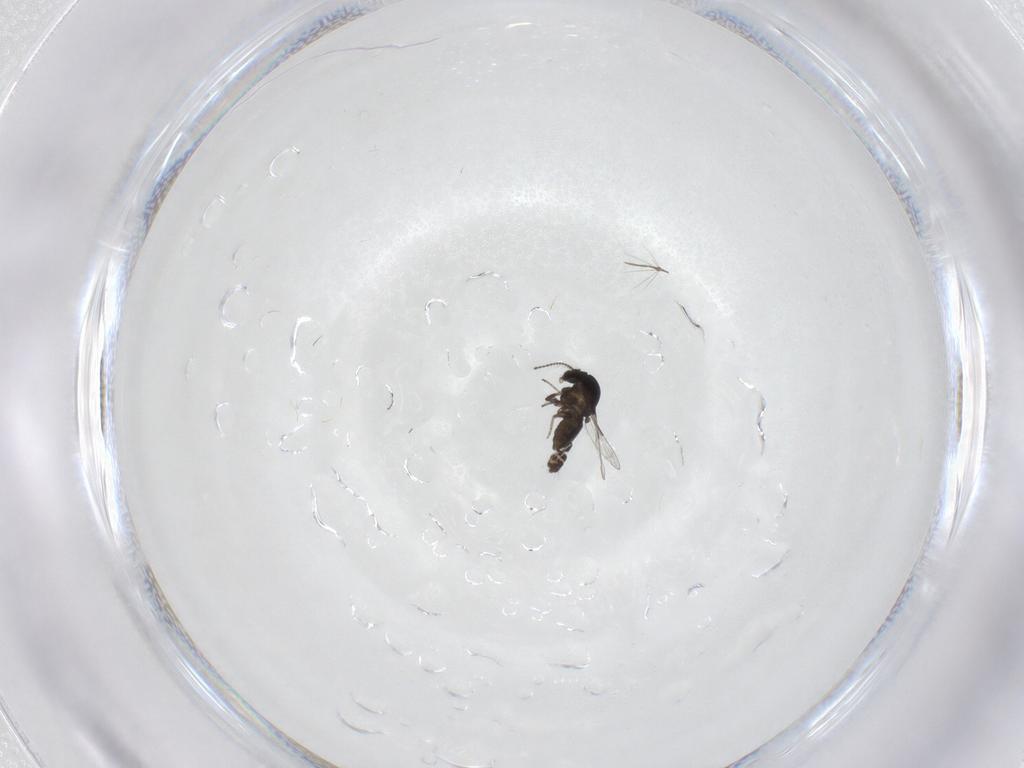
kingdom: Animalia
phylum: Arthropoda
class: Insecta
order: Diptera
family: Ceratopogonidae
